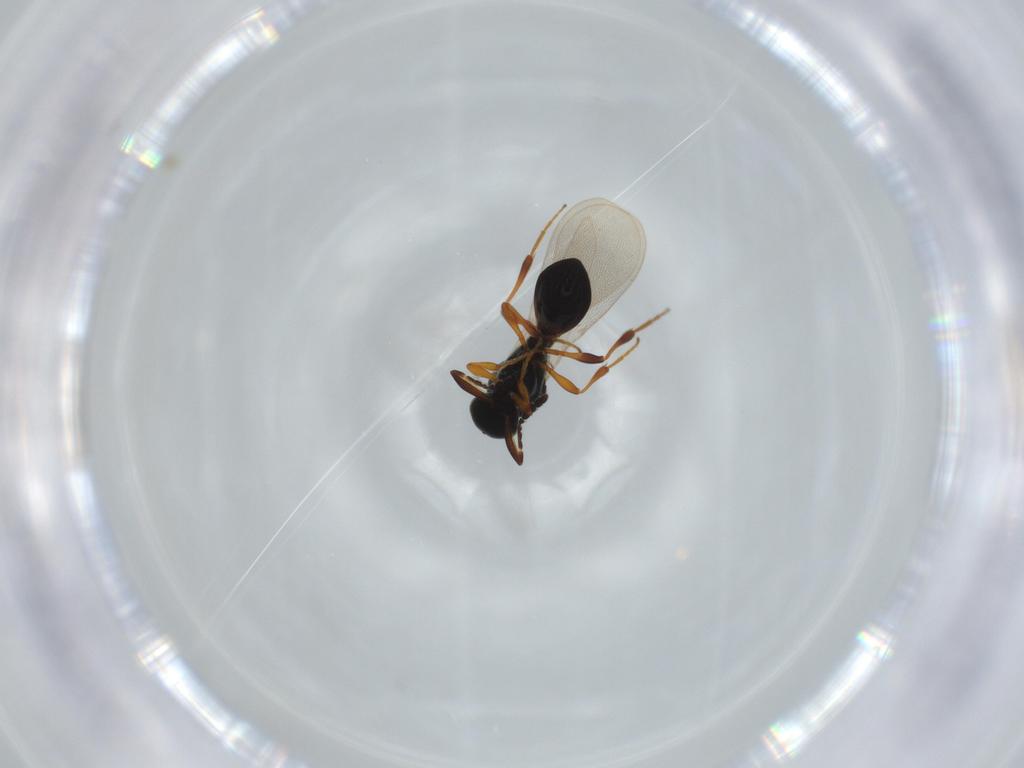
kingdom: Animalia
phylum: Arthropoda
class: Insecta
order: Hymenoptera
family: Platygastridae
